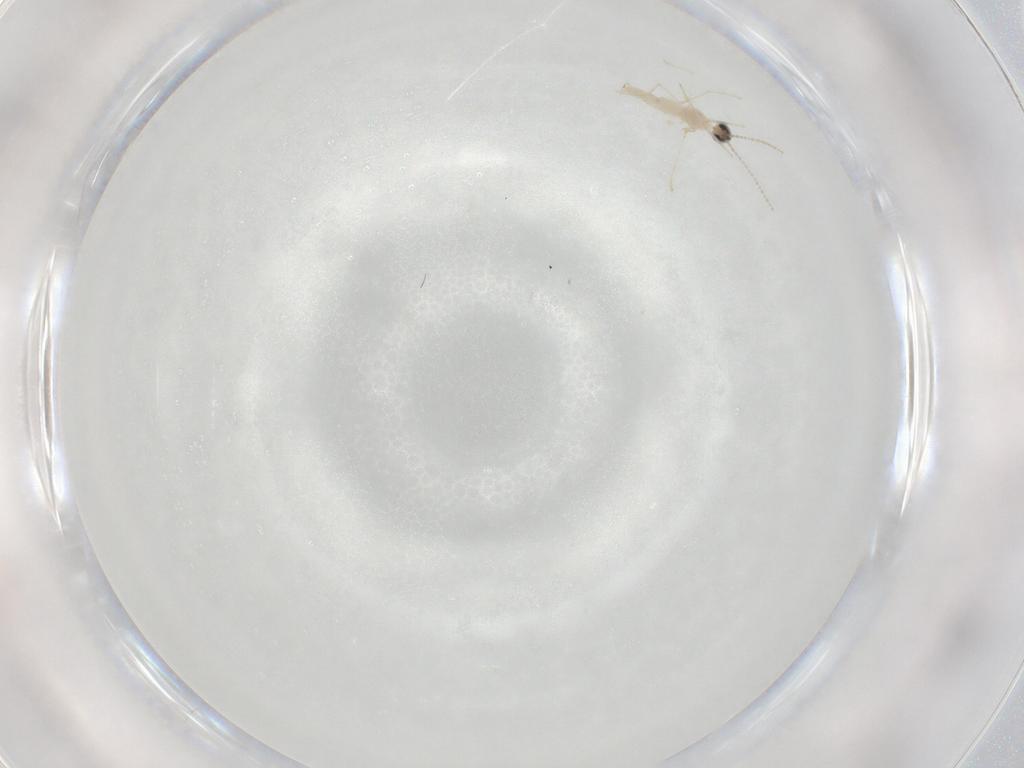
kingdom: Animalia
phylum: Arthropoda
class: Insecta
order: Diptera
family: Cecidomyiidae
